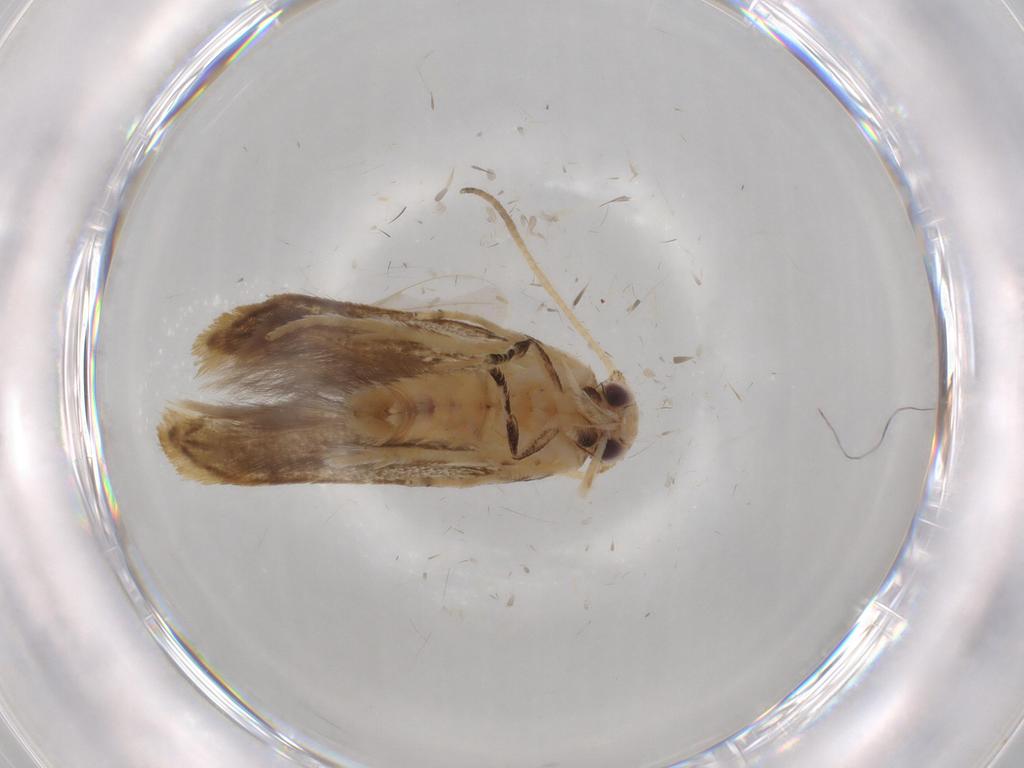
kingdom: Animalia
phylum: Arthropoda
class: Insecta
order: Lepidoptera
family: Momphidae
